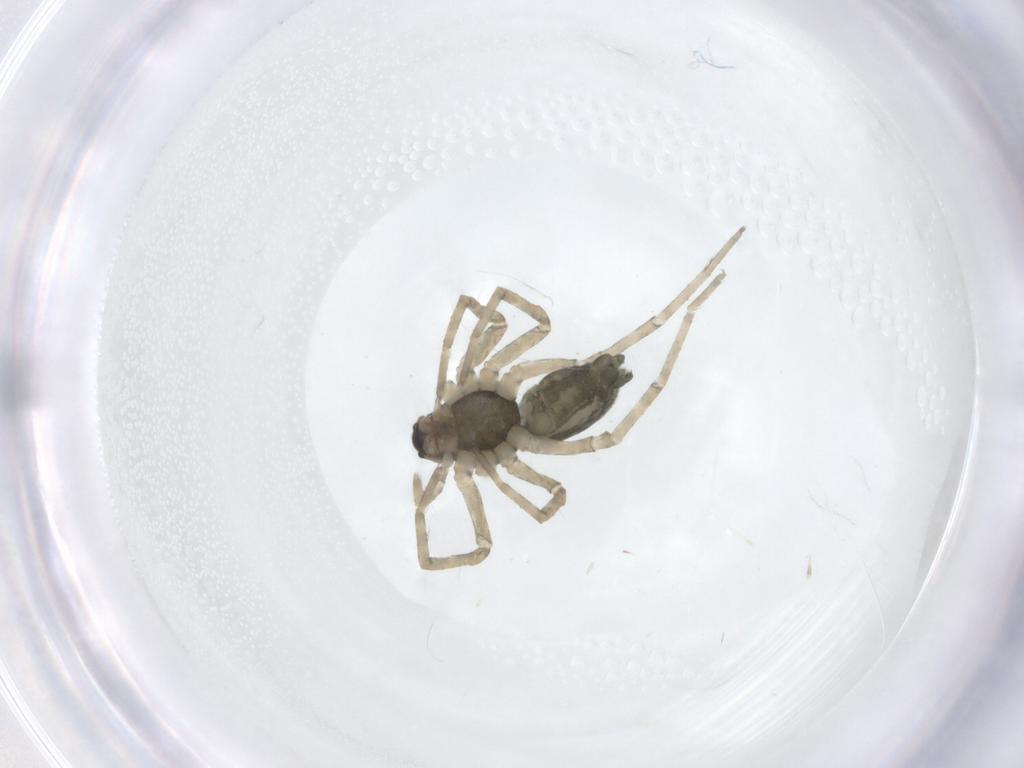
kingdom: Animalia
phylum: Arthropoda
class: Arachnida
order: Araneae
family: Lycosidae
